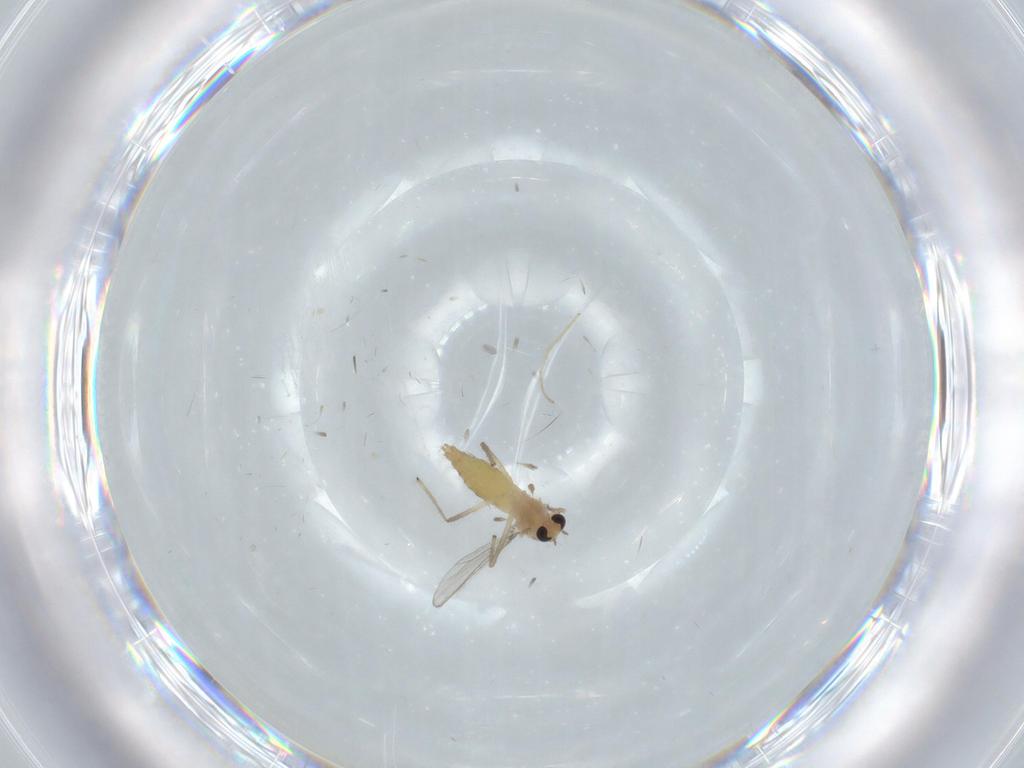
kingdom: Animalia
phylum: Arthropoda
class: Insecta
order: Diptera
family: Chironomidae
